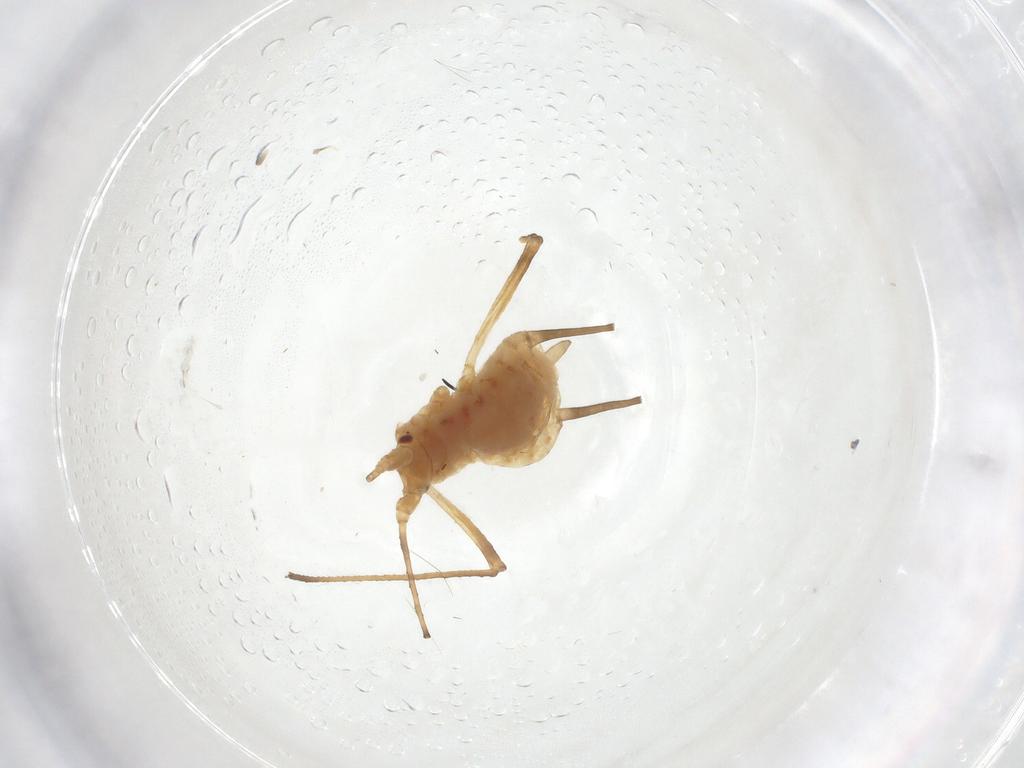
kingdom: Animalia
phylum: Arthropoda
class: Insecta
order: Hemiptera
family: Aphididae
